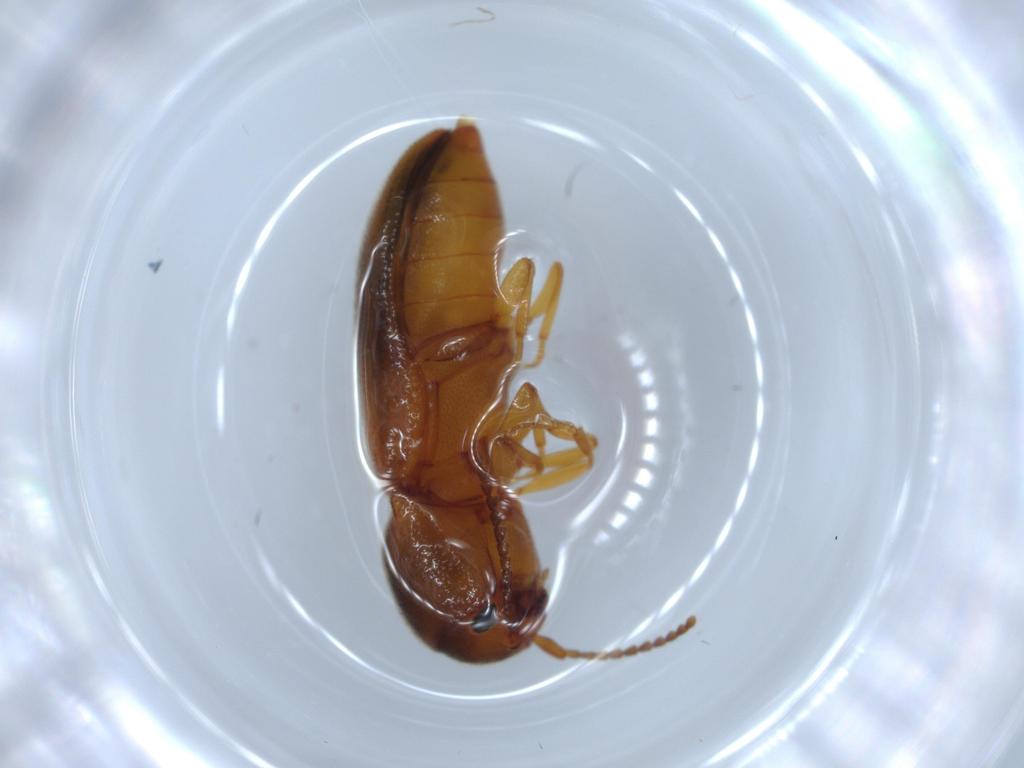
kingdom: Animalia
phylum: Arthropoda
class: Insecta
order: Coleoptera
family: Eucnemidae
